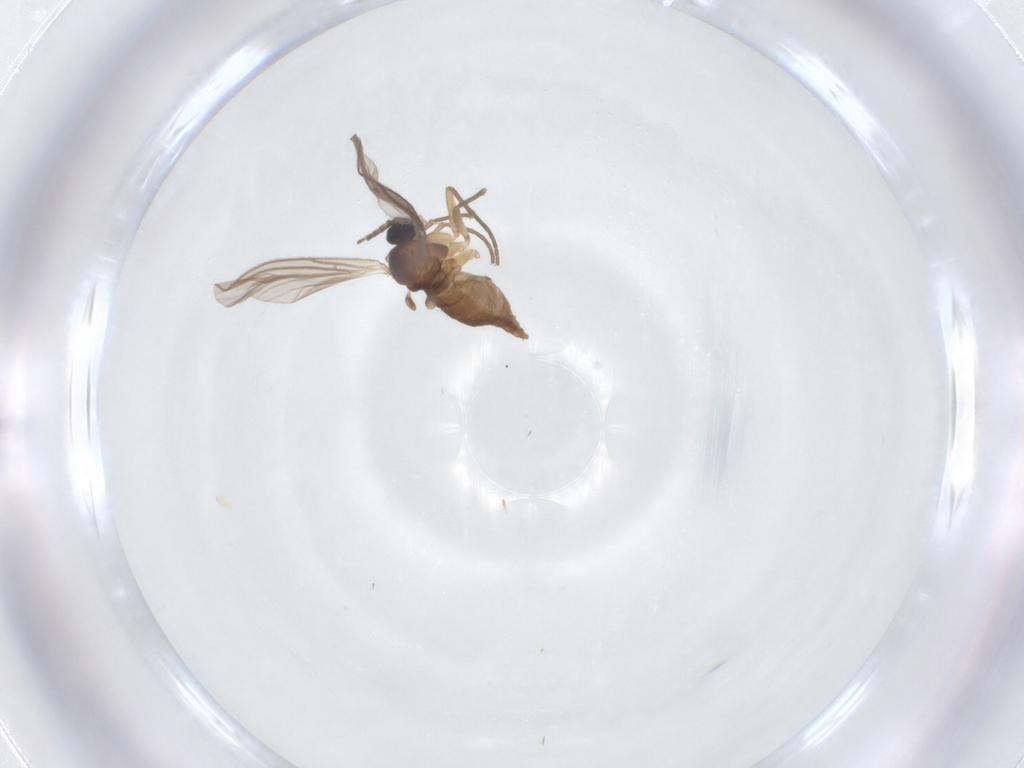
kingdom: Animalia
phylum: Arthropoda
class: Insecta
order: Diptera
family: Sciaridae
